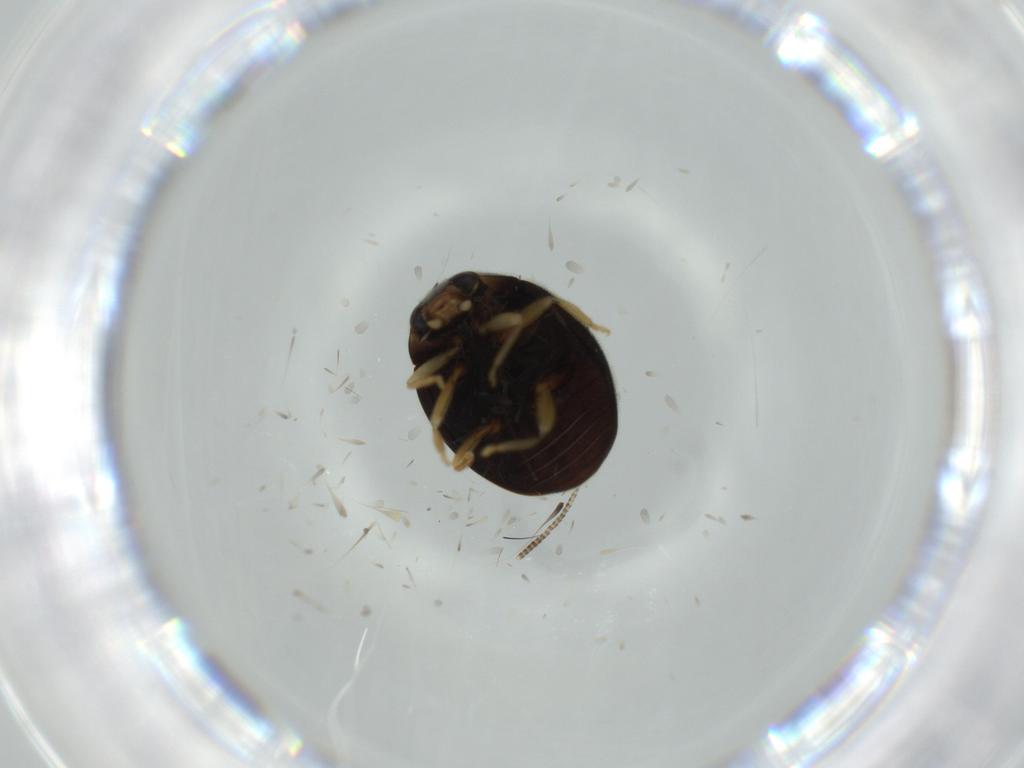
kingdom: Animalia
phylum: Arthropoda
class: Insecta
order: Coleoptera
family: Coccinellidae
